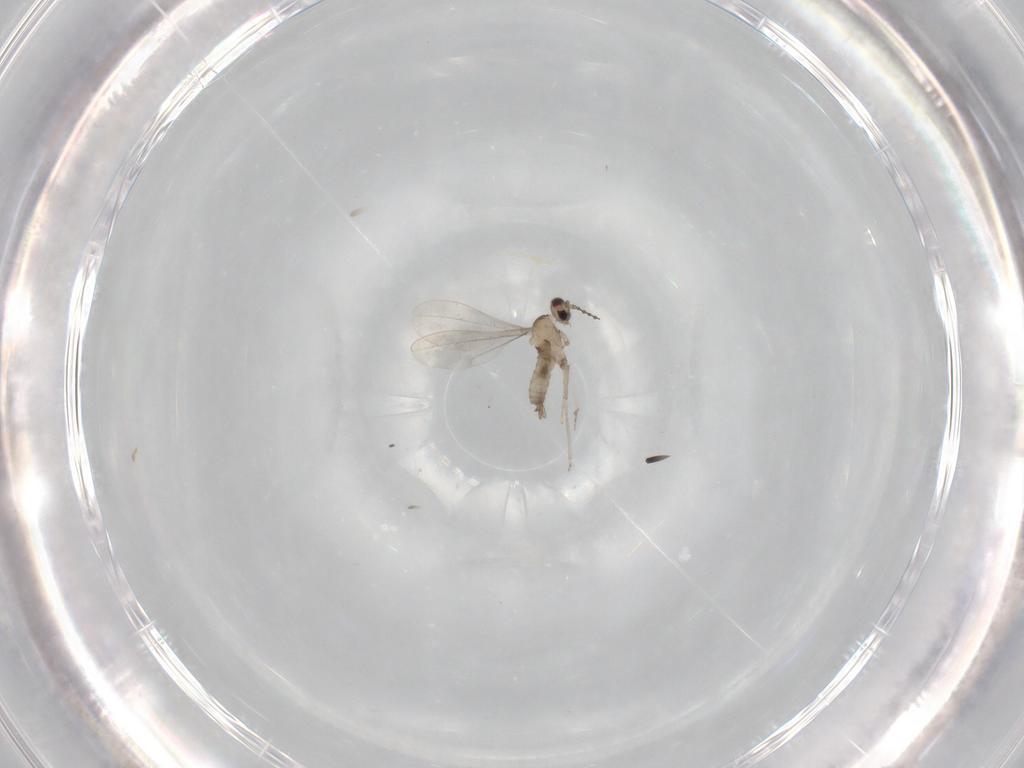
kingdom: Animalia
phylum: Arthropoda
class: Insecta
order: Diptera
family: Cecidomyiidae
